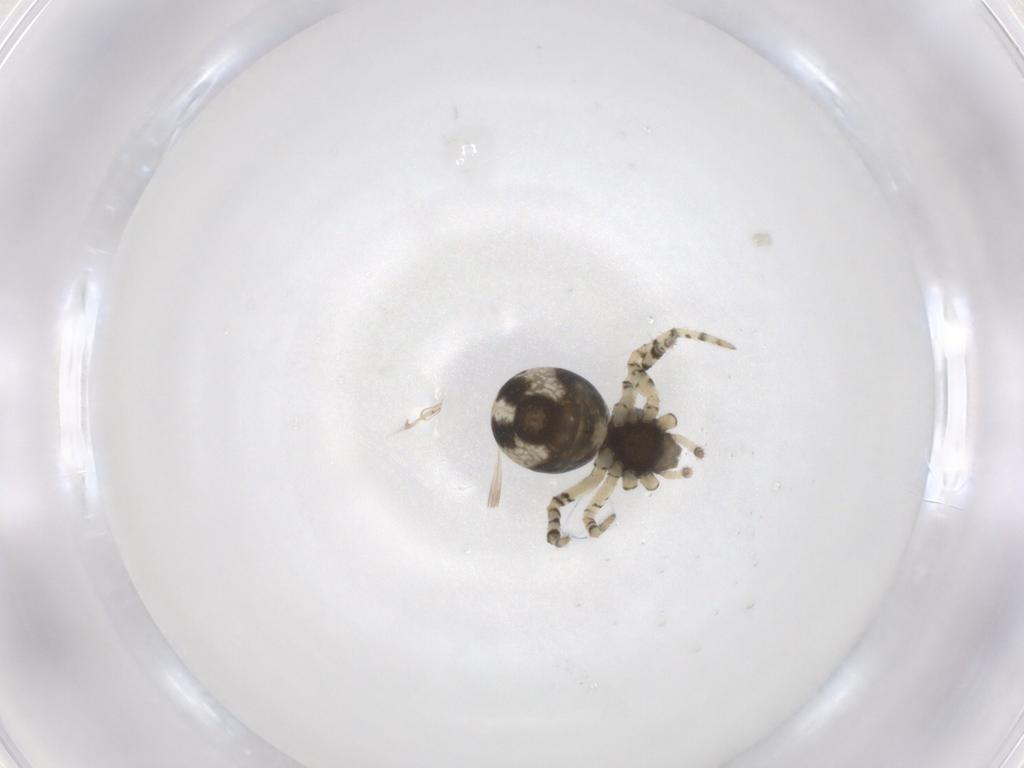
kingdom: Animalia
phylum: Arthropoda
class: Arachnida
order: Araneae
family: Theridiidae
